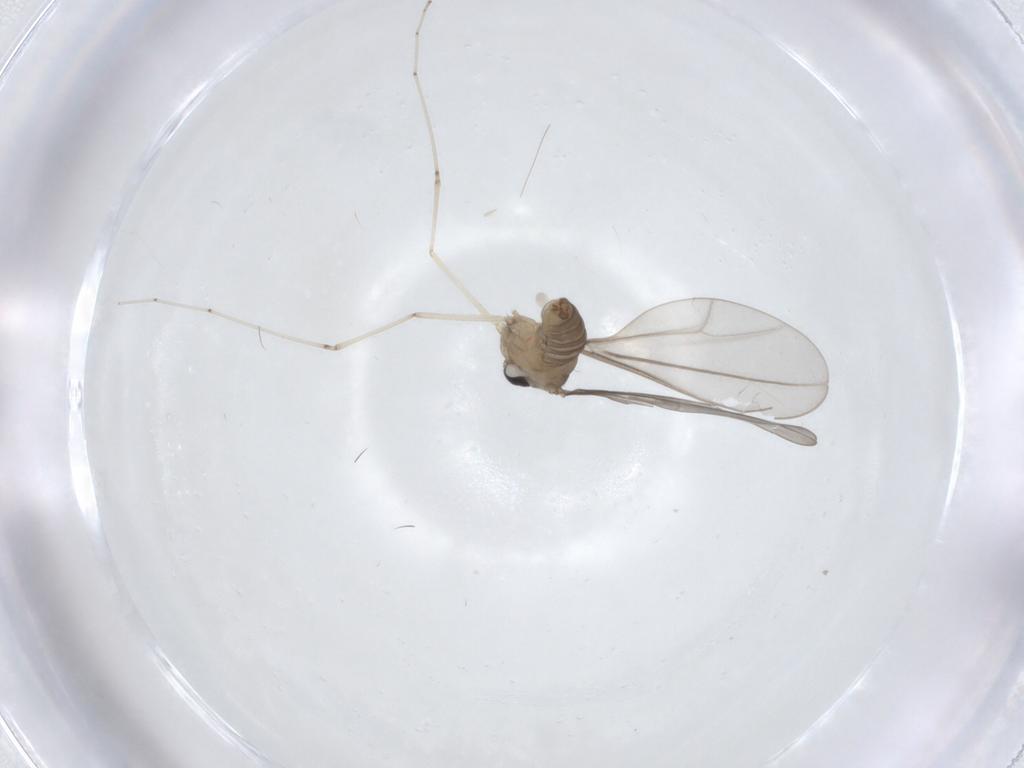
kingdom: Animalia
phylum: Arthropoda
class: Insecta
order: Diptera
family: Cecidomyiidae
